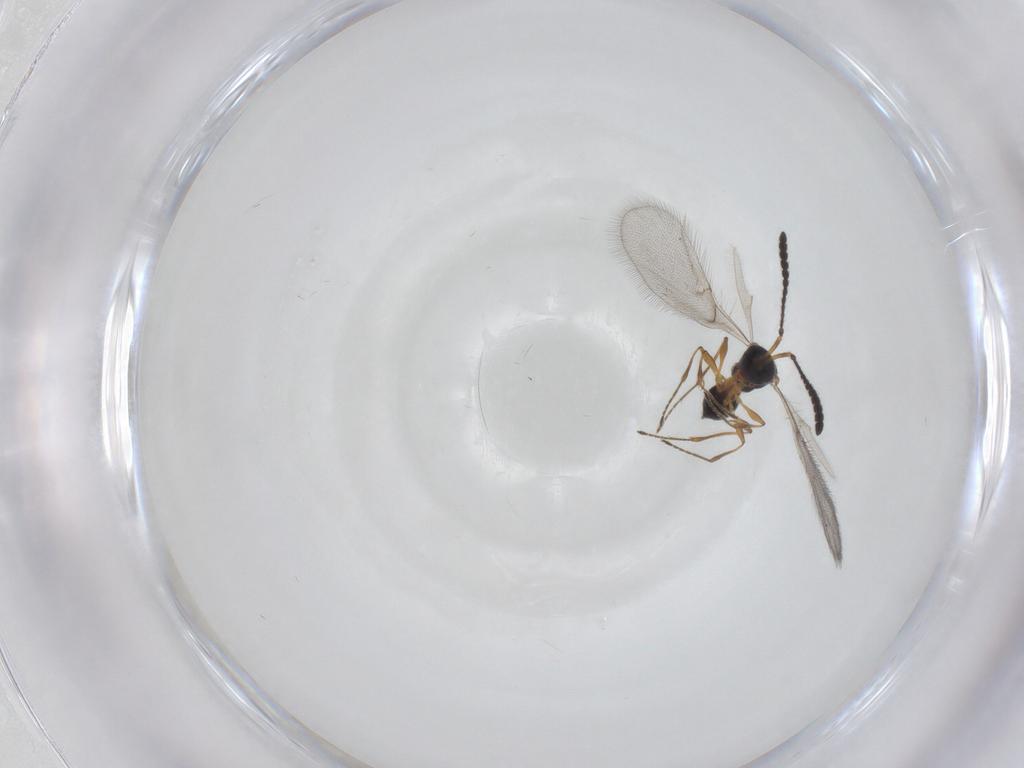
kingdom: Animalia
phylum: Arthropoda
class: Insecta
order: Hymenoptera
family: Diapriidae
